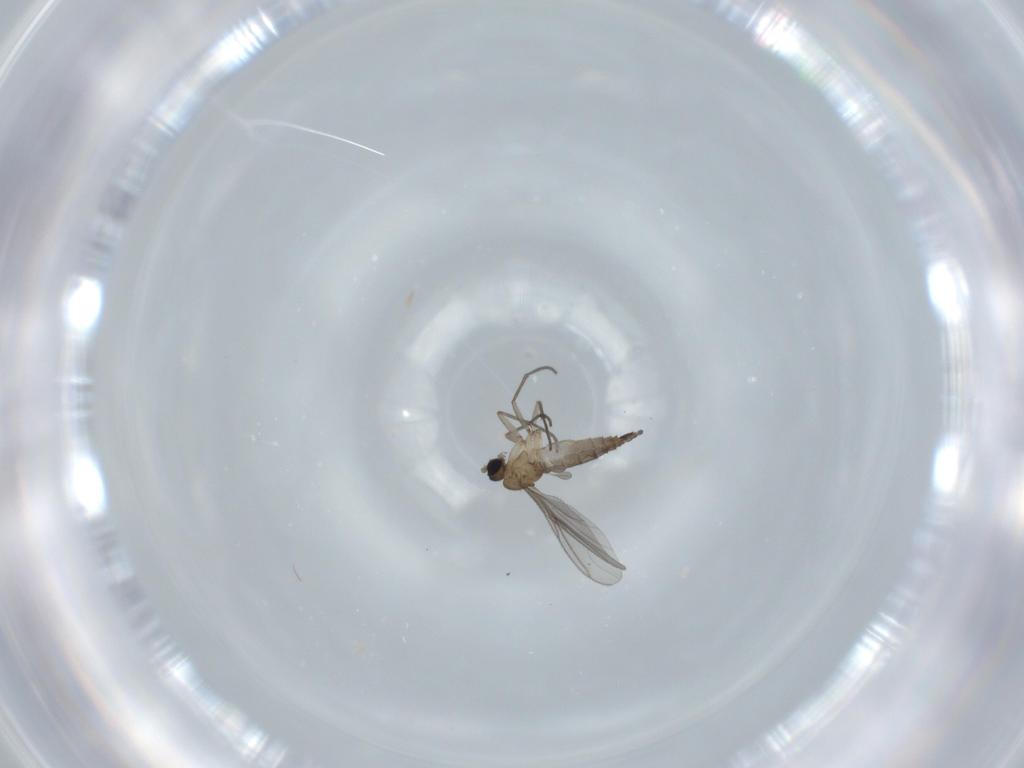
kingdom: Animalia
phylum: Arthropoda
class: Insecta
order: Diptera
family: Sciaridae
